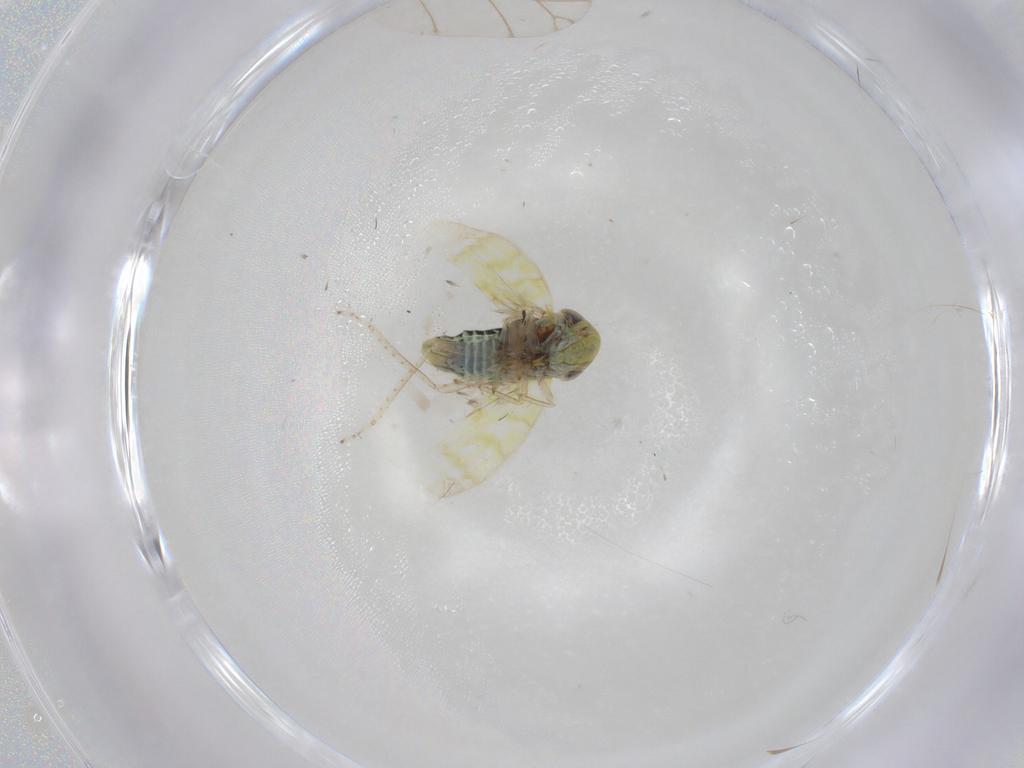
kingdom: Animalia
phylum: Arthropoda
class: Insecta
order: Hemiptera
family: Cicadellidae
